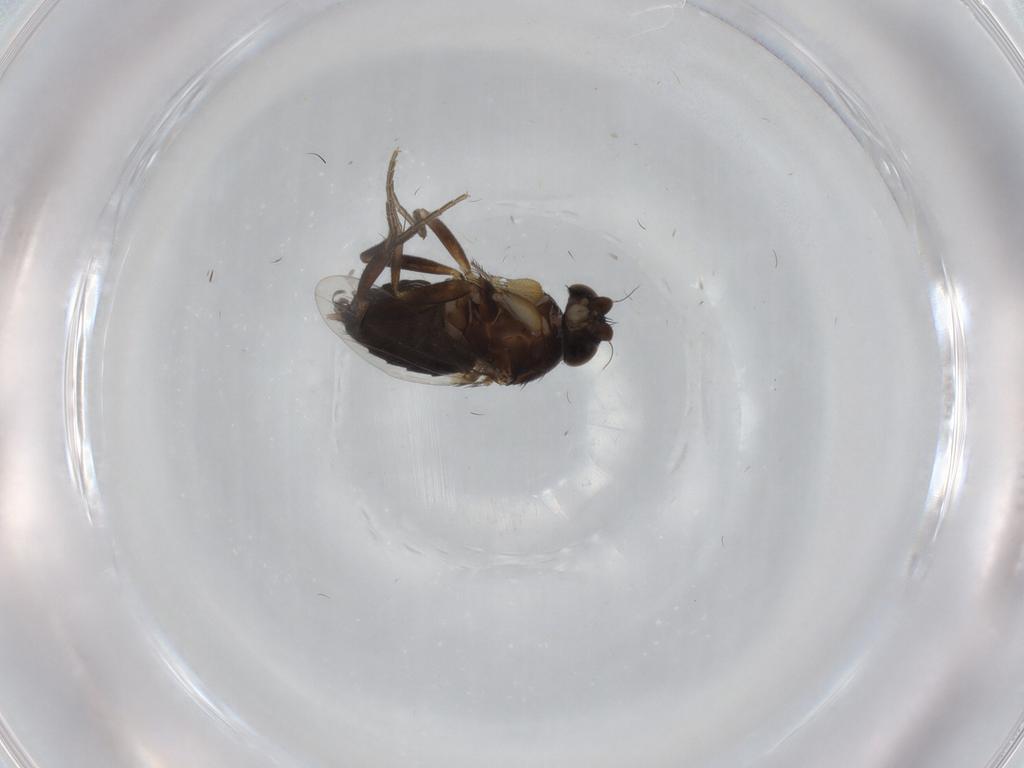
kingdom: Animalia
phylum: Arthropoda
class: Insecta
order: Diptera
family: Phoridae
